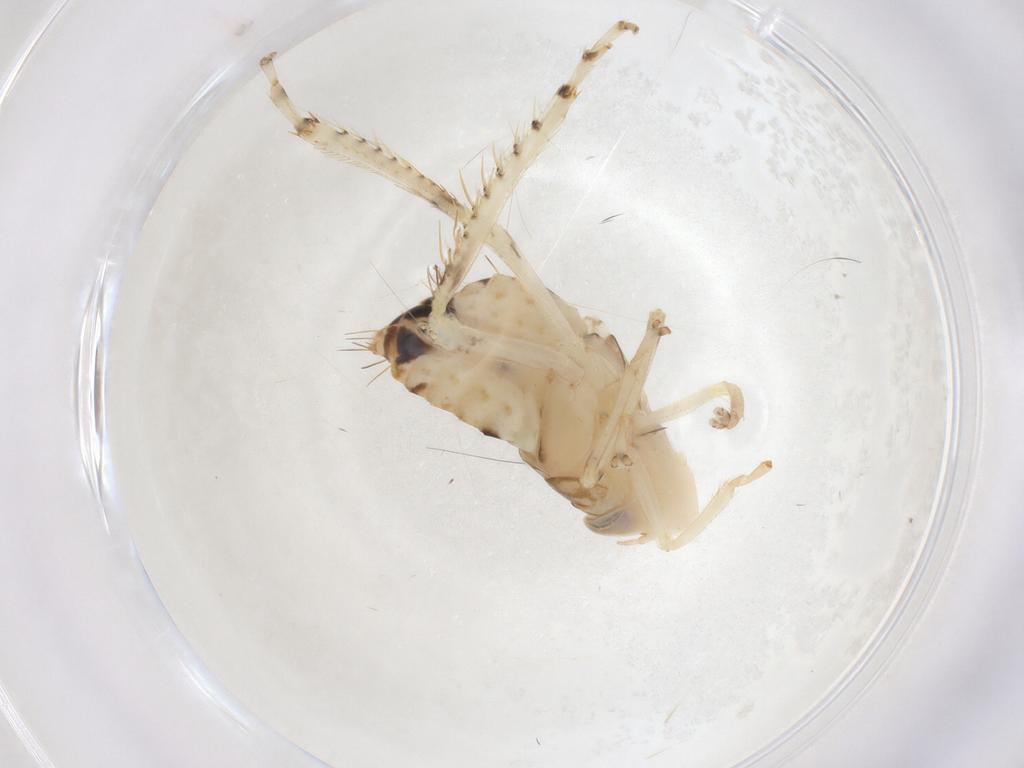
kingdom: Animalia
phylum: Arthropoda
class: Insecta
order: Hemiptera
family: Cicadellidae
